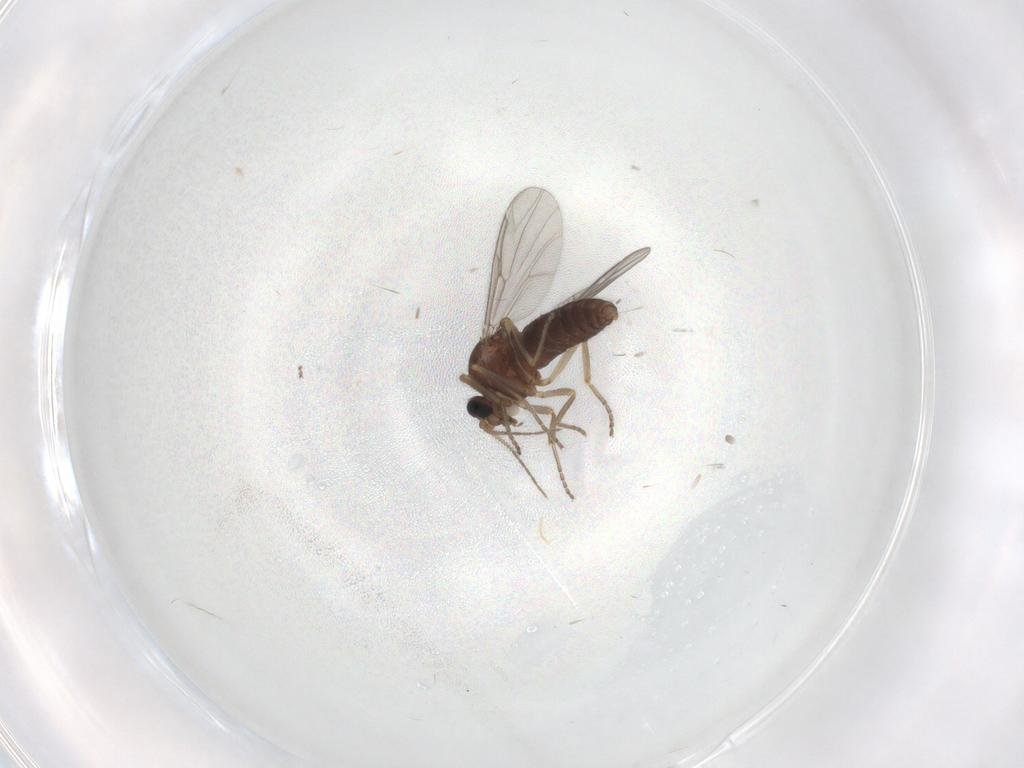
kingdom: Animalia
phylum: Arthropoda
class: Insecta
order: Diptera
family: Ceratopogonidae
